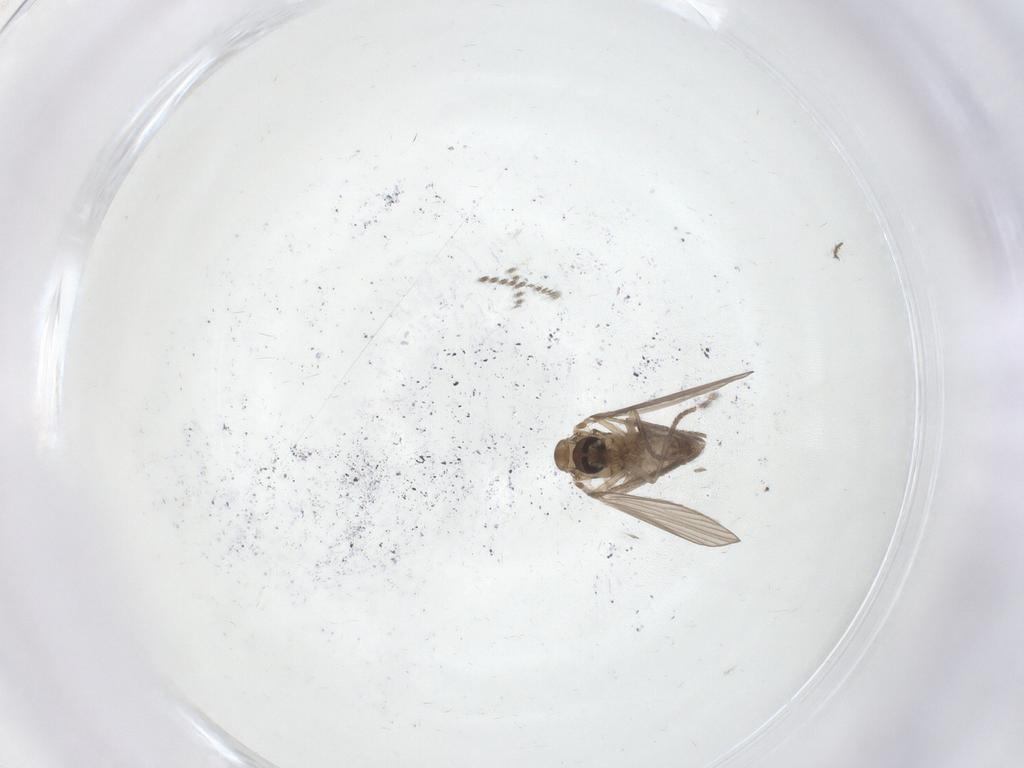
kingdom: Animalia
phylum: Arthropoda
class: Insecta
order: Diptera
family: Psychodidae
